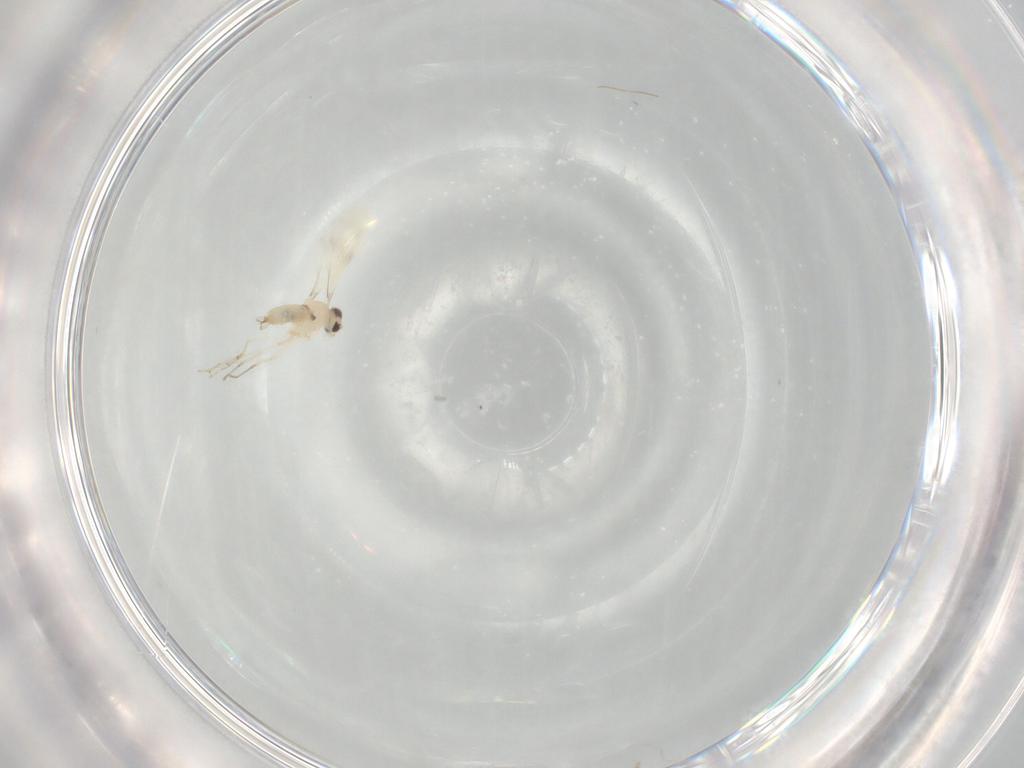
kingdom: Animalia
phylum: Arthropoda
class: Insecta
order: Diptera
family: Cecidomyiidae
